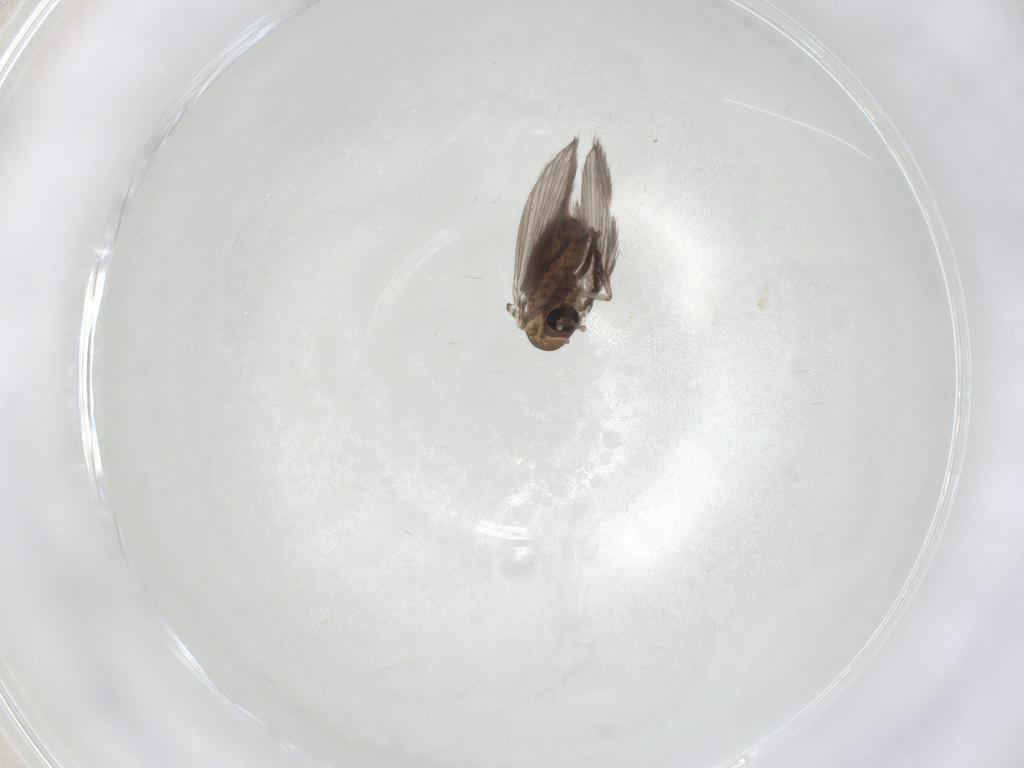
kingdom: Animalia
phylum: Arthropoda
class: Insecta
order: Diptera
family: Psychodidae
